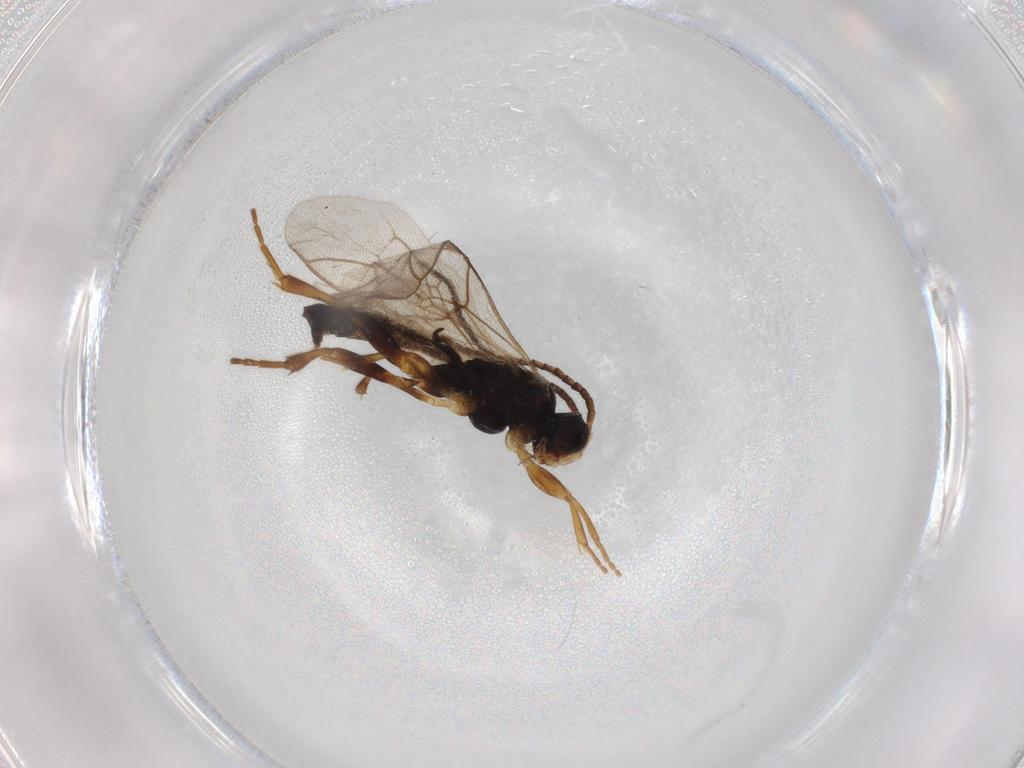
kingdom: Animalia
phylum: Arthropoda
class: Insecta
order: Hymenoptera
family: Ichneumonidae
